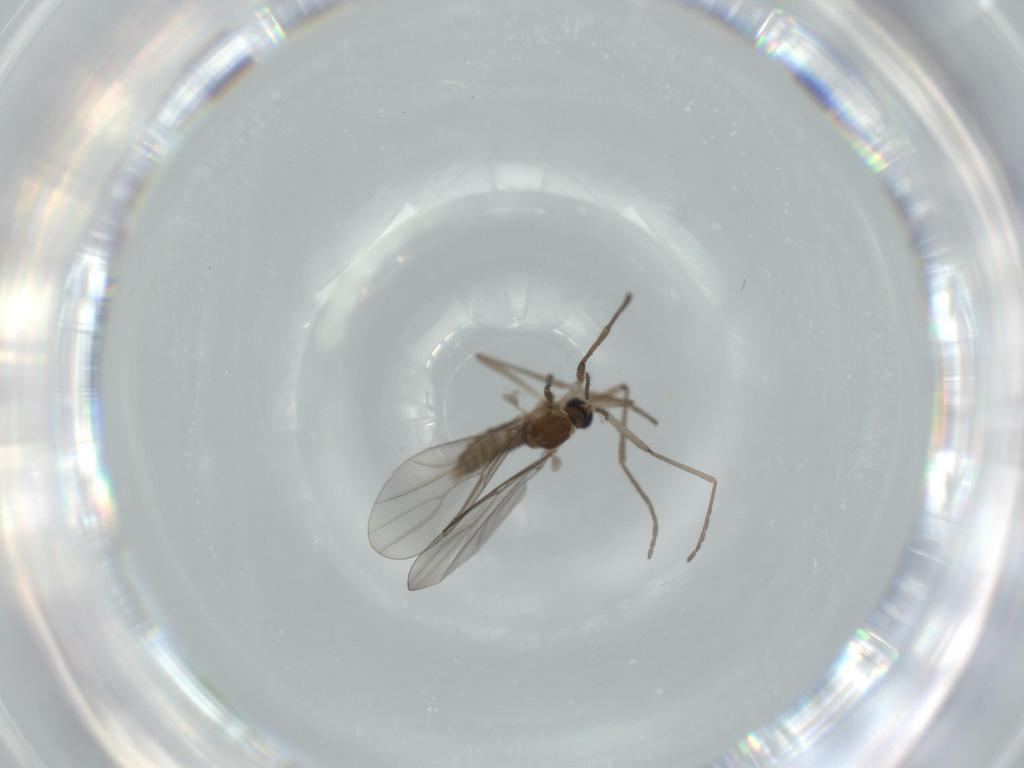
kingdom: Animalia
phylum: Arthropoda
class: Insecta
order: Diptera
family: Cecidomyiidae
